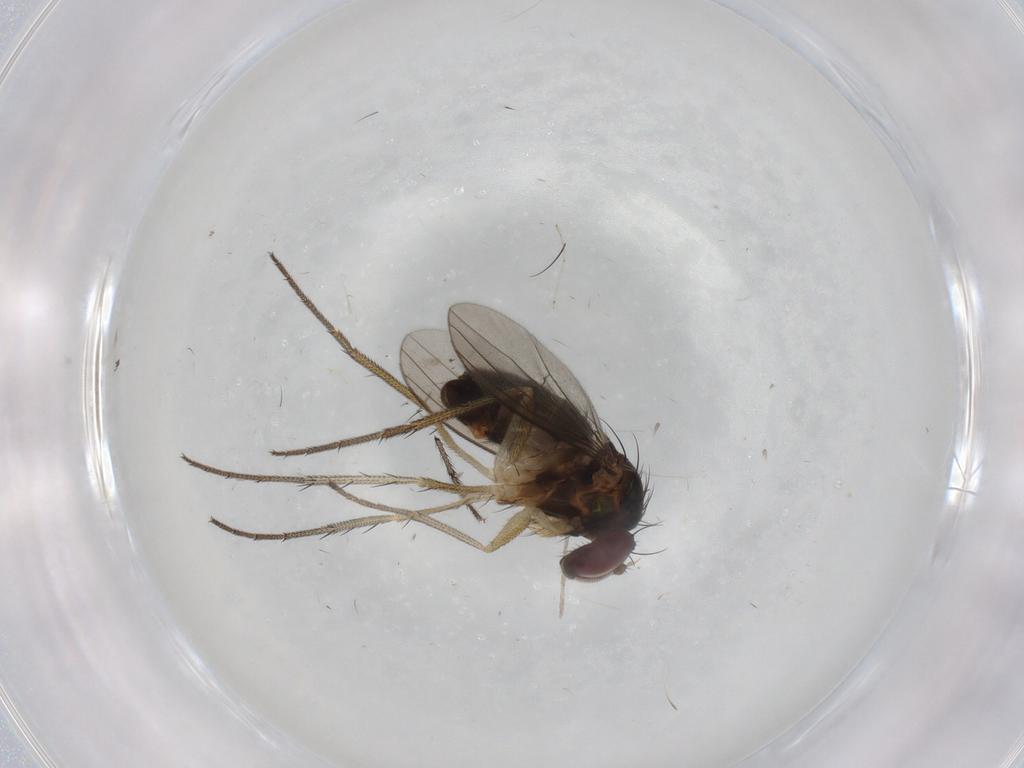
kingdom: Animalia
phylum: Arthropoda
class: Insecta
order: Diptera
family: Dolichopodidae
